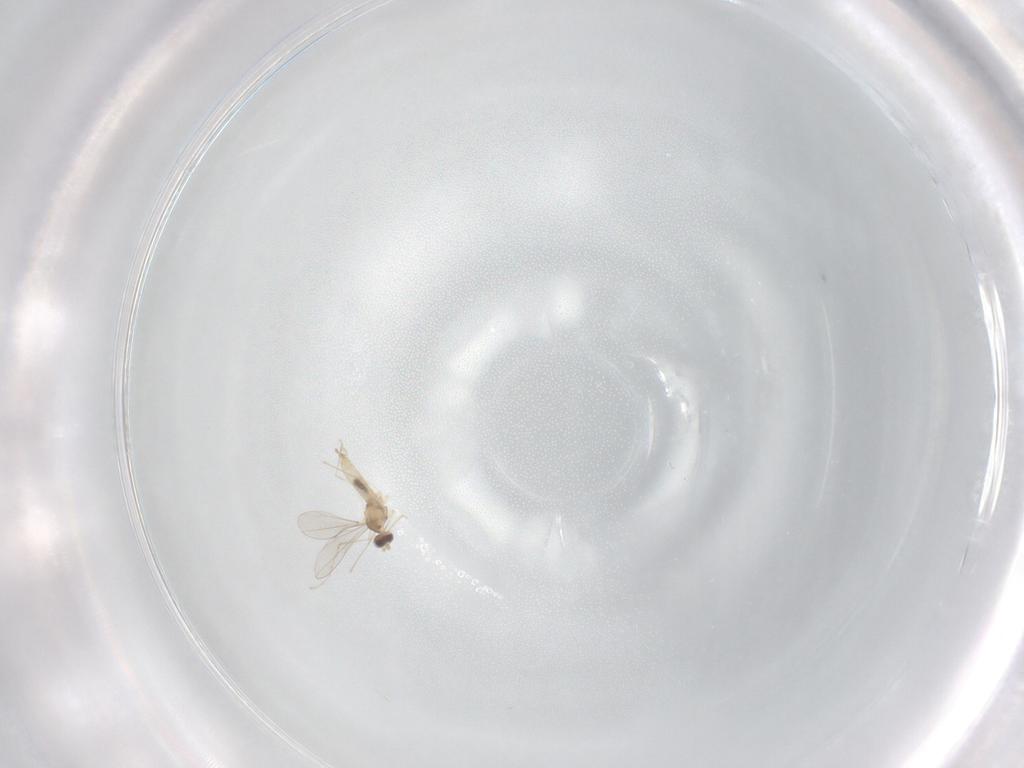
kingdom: Animalia
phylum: Arthropoda
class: Insecta
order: Diptera
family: Cecidomyiidae
